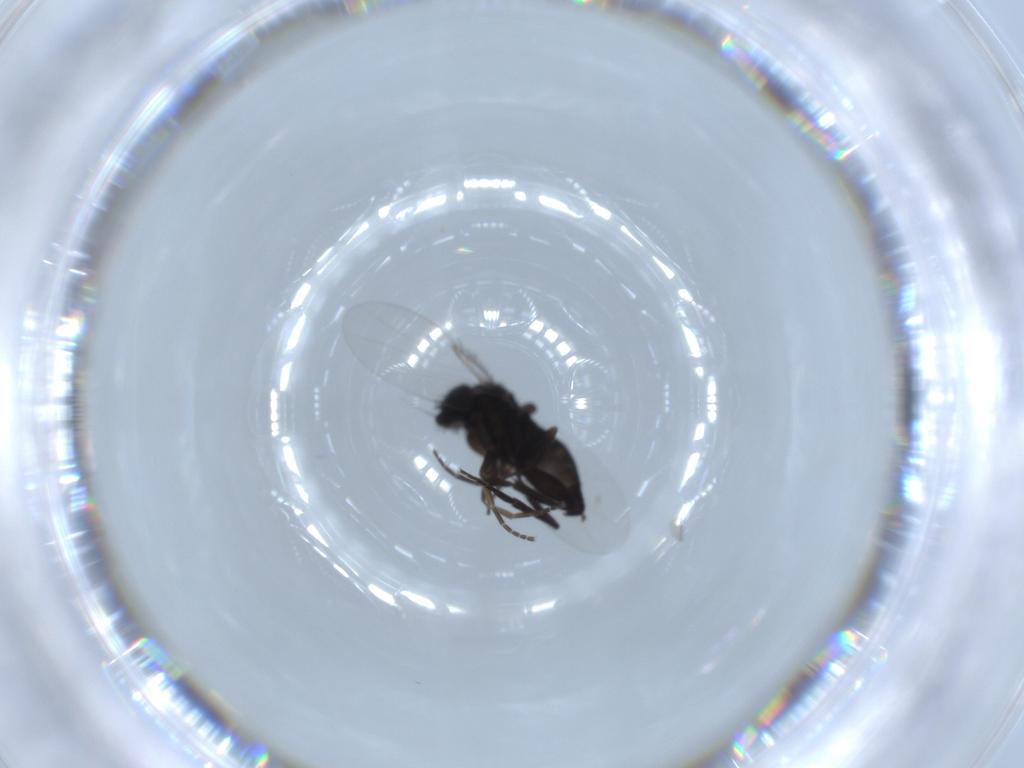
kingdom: Animalia
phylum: Arthropoda
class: Insecta
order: Diptera
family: Phoridae
